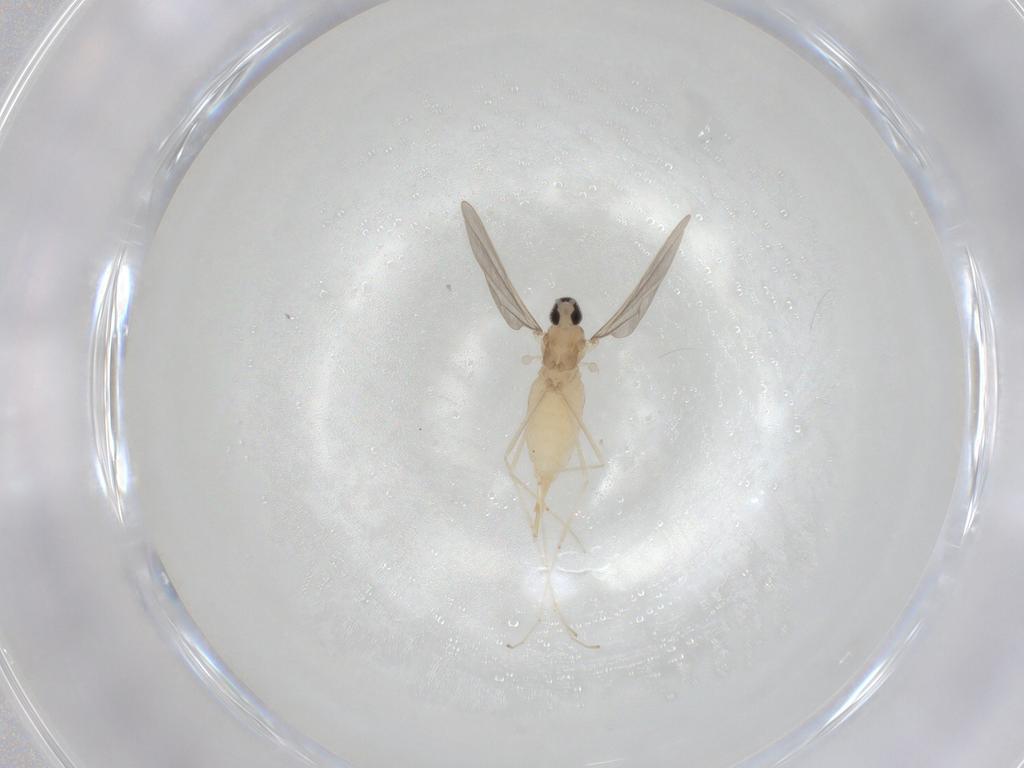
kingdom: Animalia
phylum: Arthropoda
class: Insecta
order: Diptera
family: Cecidomyiidae
